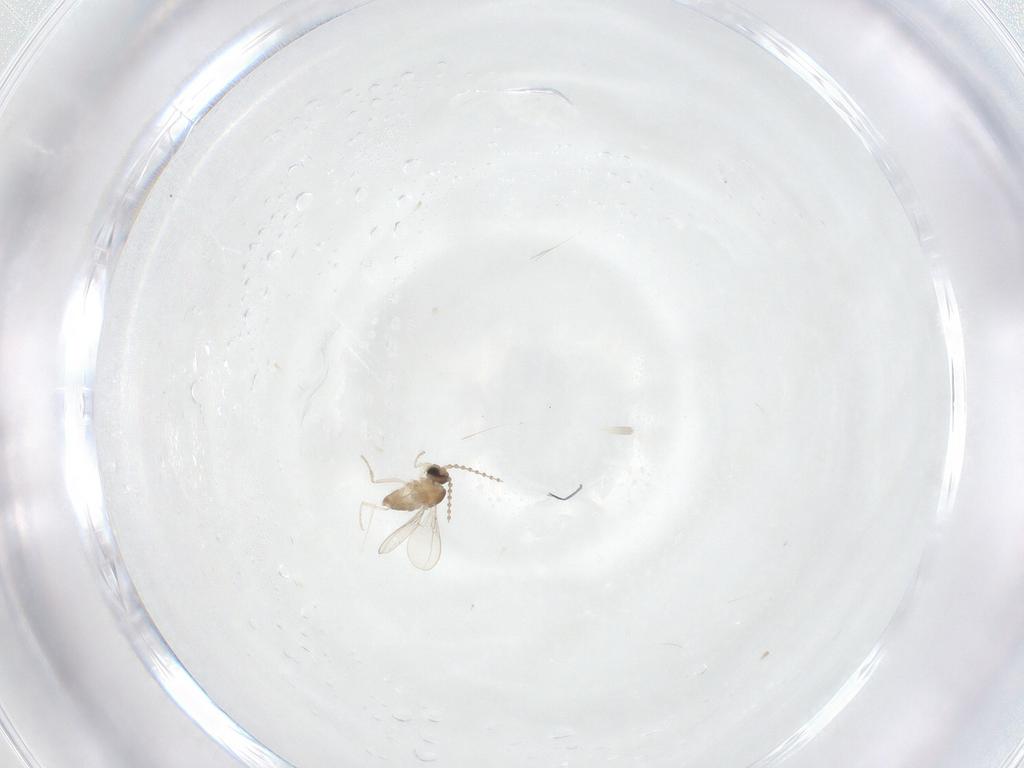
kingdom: Animalia
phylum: Arthropoda
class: Insecta
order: Diptera
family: Cecidomyiidae
